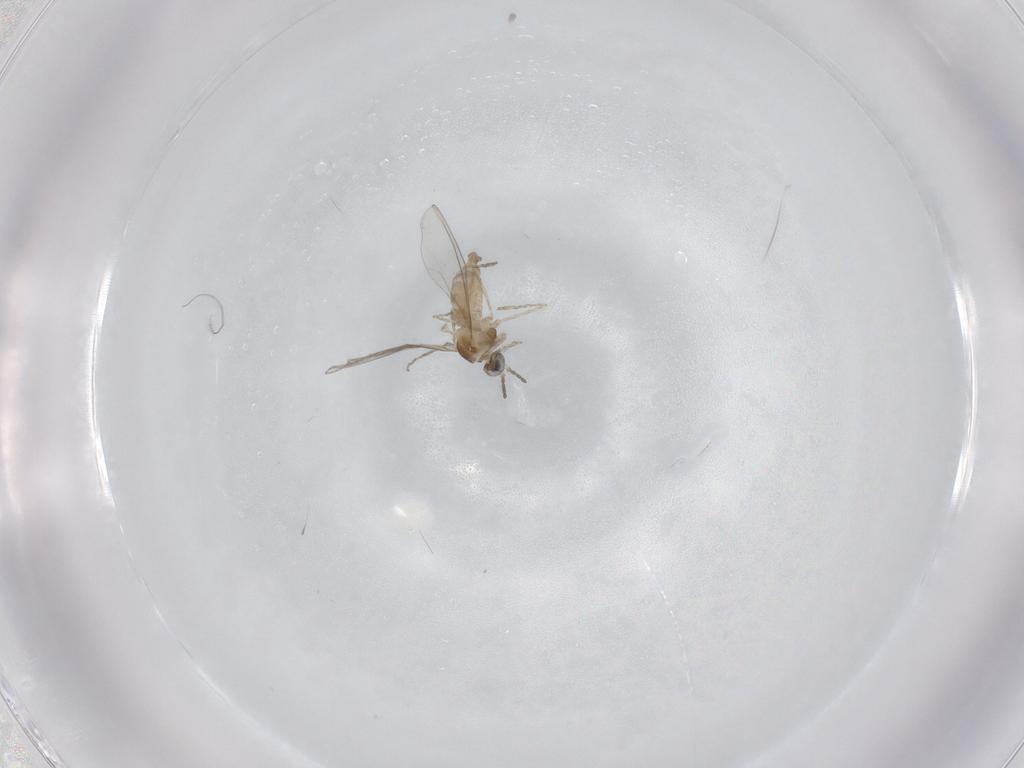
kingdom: Animalia
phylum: Arthropoda
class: Insecta
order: Diptera
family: Cecidomyiidae
